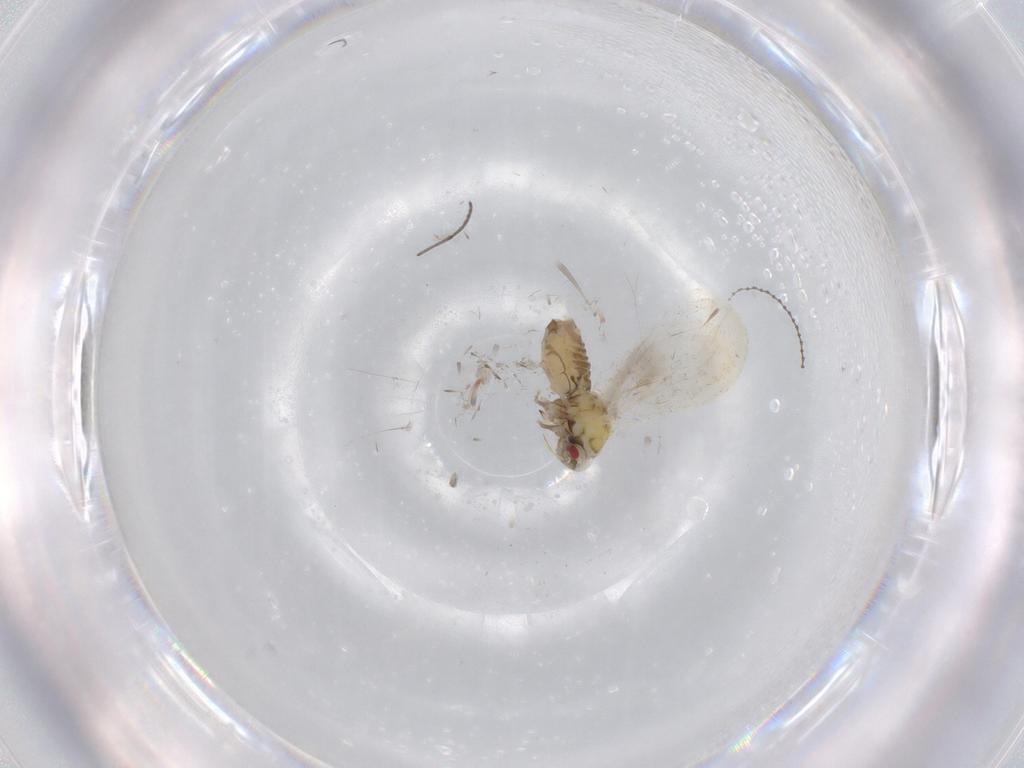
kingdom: Animalia
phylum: Arthropoda
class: Insecta
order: Hemiptera
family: Aleyrodidae
